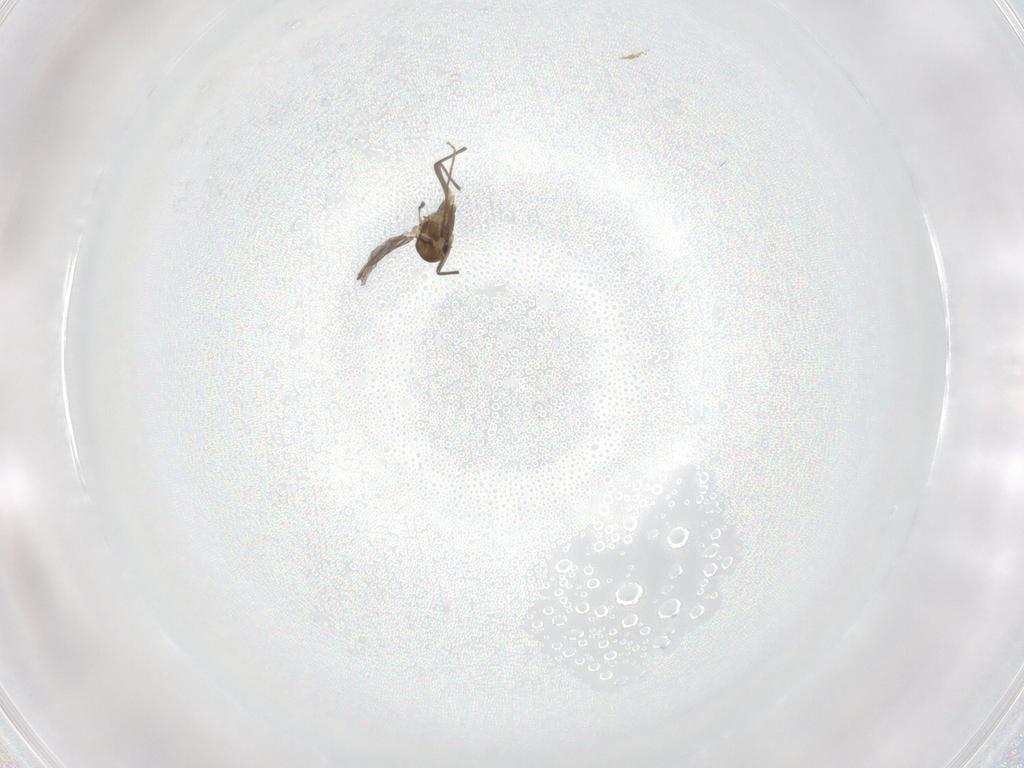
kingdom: Animalia
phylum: Arthropoda
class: Insecta
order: Diptera
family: Chironomidae
